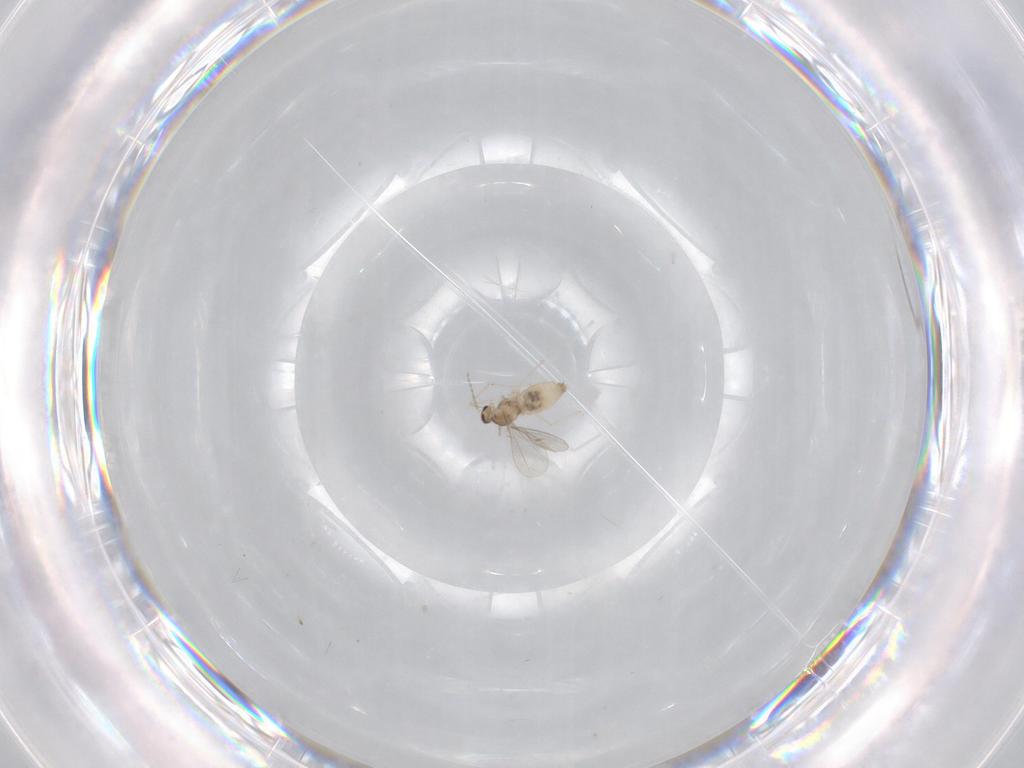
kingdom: Animalia
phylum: Arthropoda
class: Insecta
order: Diptera
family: Cecidomyiidae
